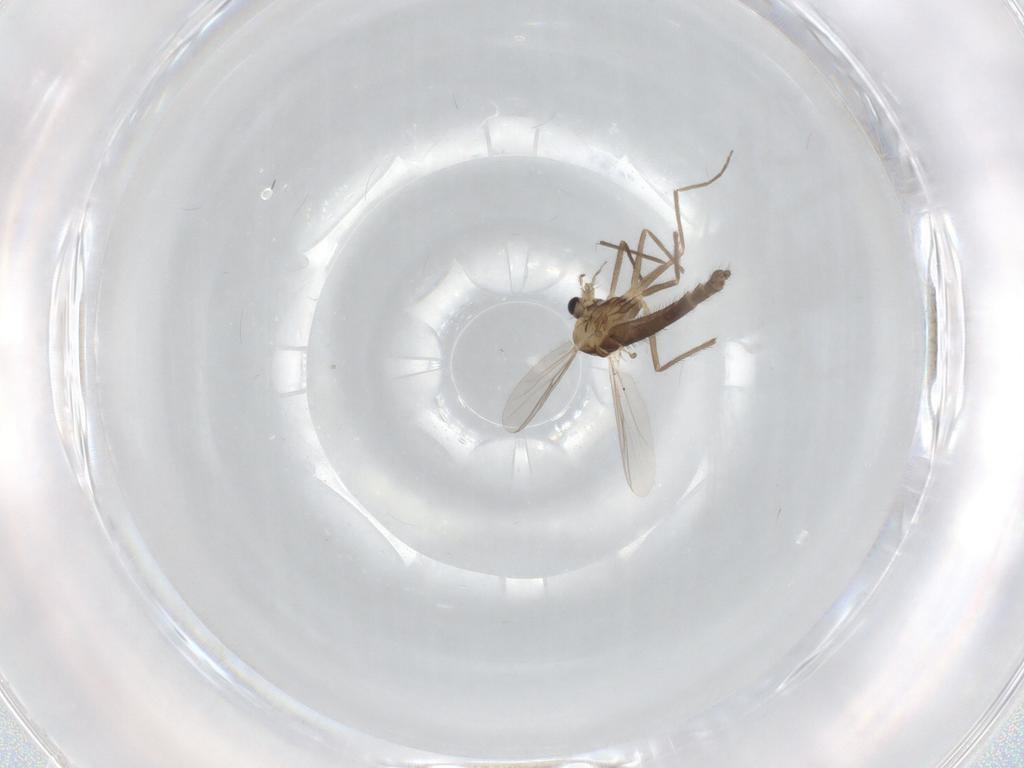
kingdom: Animalia
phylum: Arthropoda
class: Insecta
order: Diptera
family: Chironomidae
